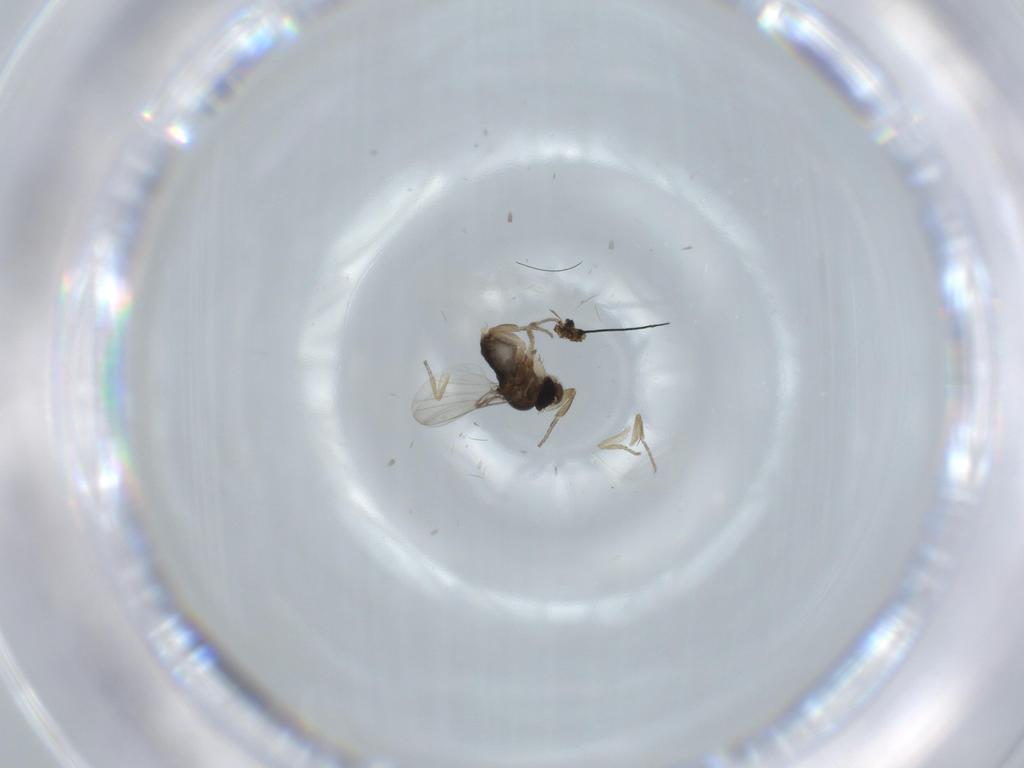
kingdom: Animalia
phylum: Arthropoda
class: Insecta
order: Diptera
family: Phoridae
